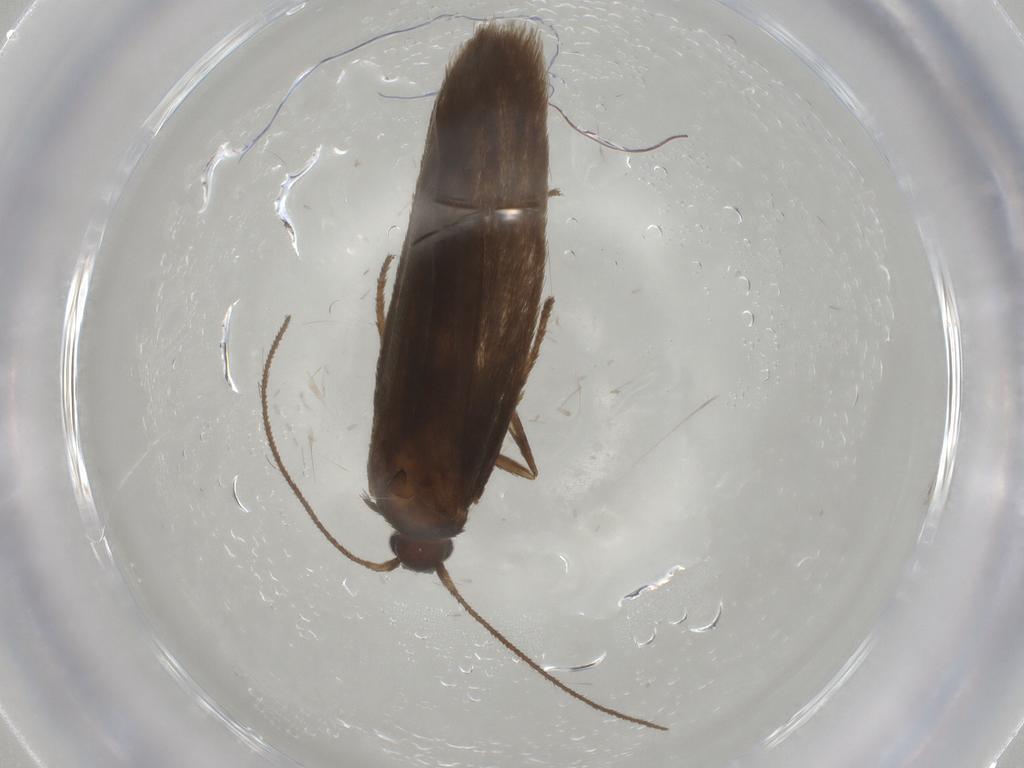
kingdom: Animalia
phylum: Arthropoda
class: Insecta
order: Lepidoptera
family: Limacodidae
